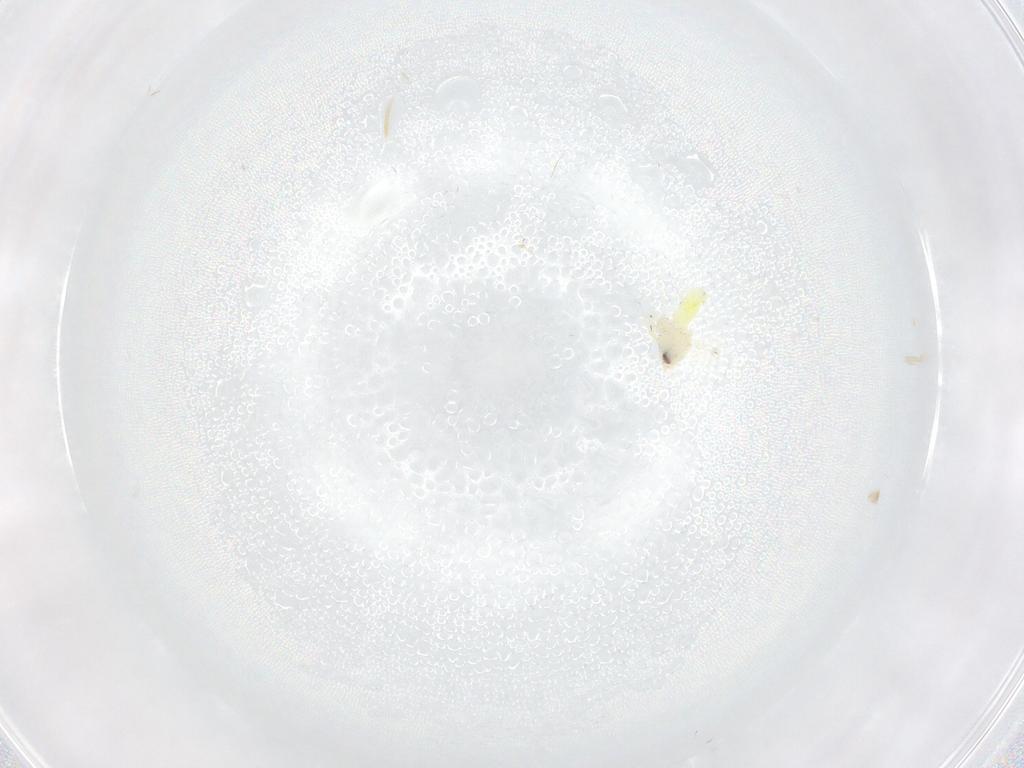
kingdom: Animalia
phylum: Arthropoda
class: Insecta
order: Hemiptera
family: Aleyrodidae
